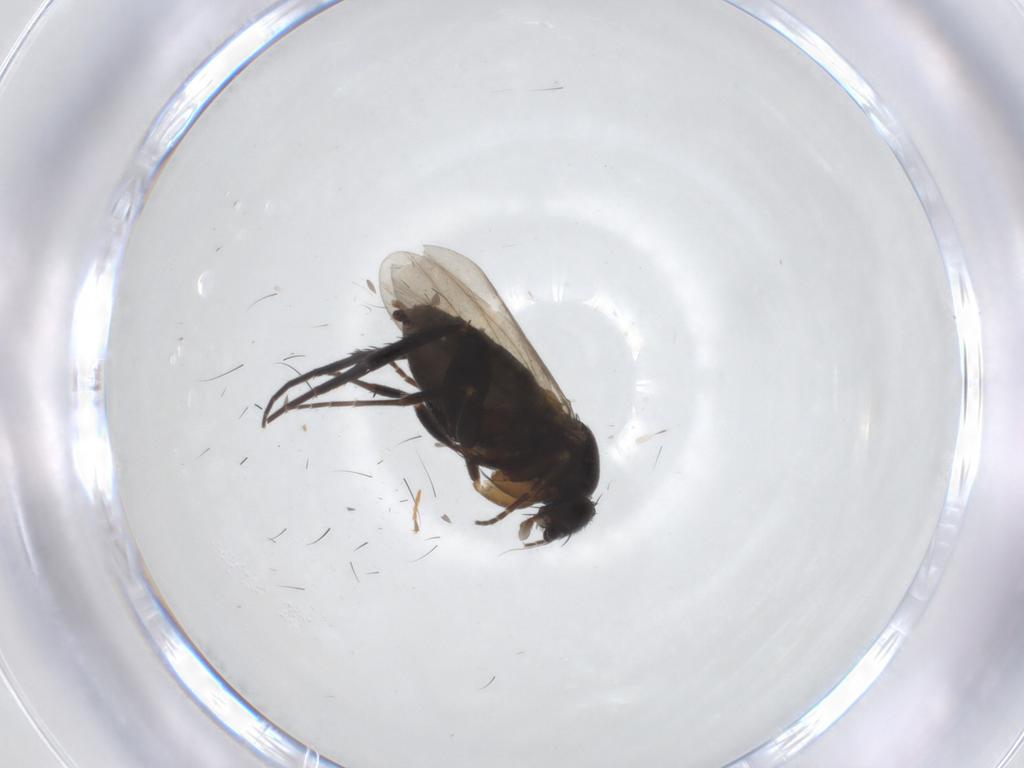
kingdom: Animalia
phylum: Arthropoda
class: Insecta
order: Diptera
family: Phoridae
